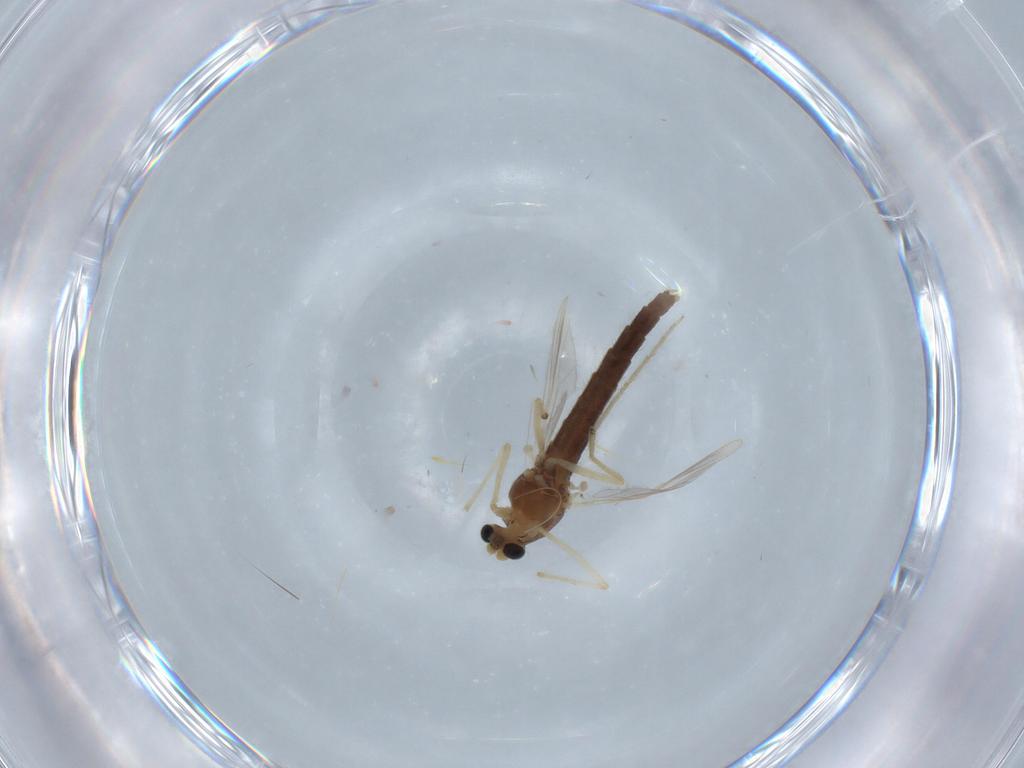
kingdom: Animalia
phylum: Arthropoda
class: Insecta
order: Diptera
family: Chironomidae
